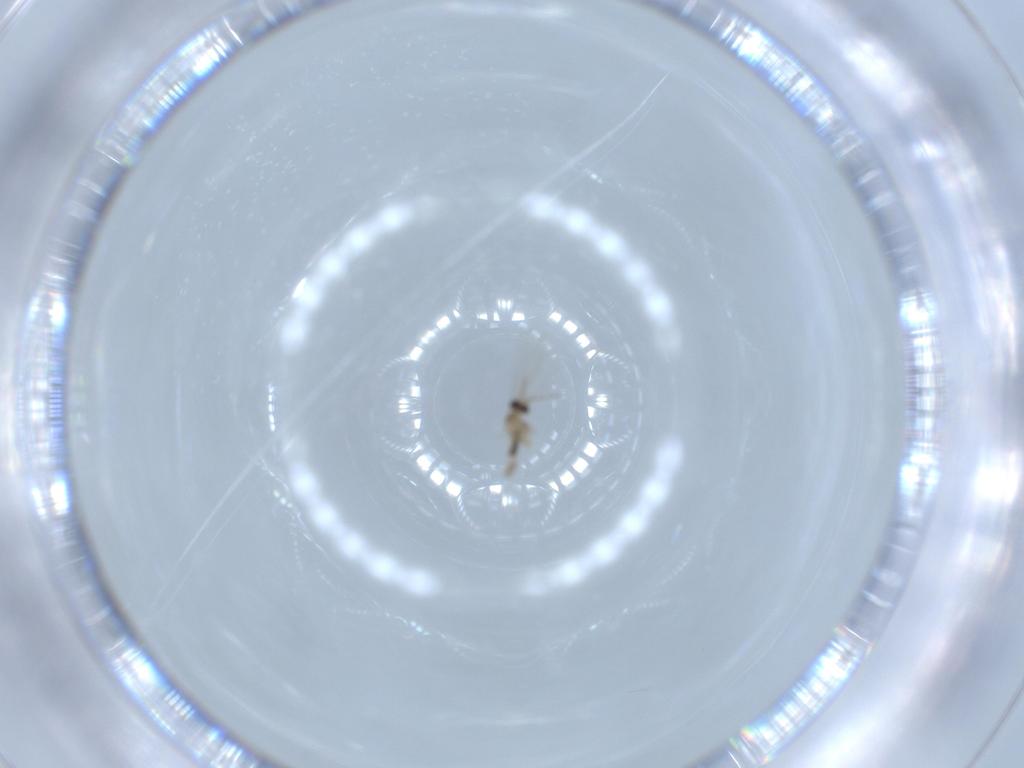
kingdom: Animalia
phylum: Arthropoda
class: Insecta
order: Diptera
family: Cecidomyiidae
